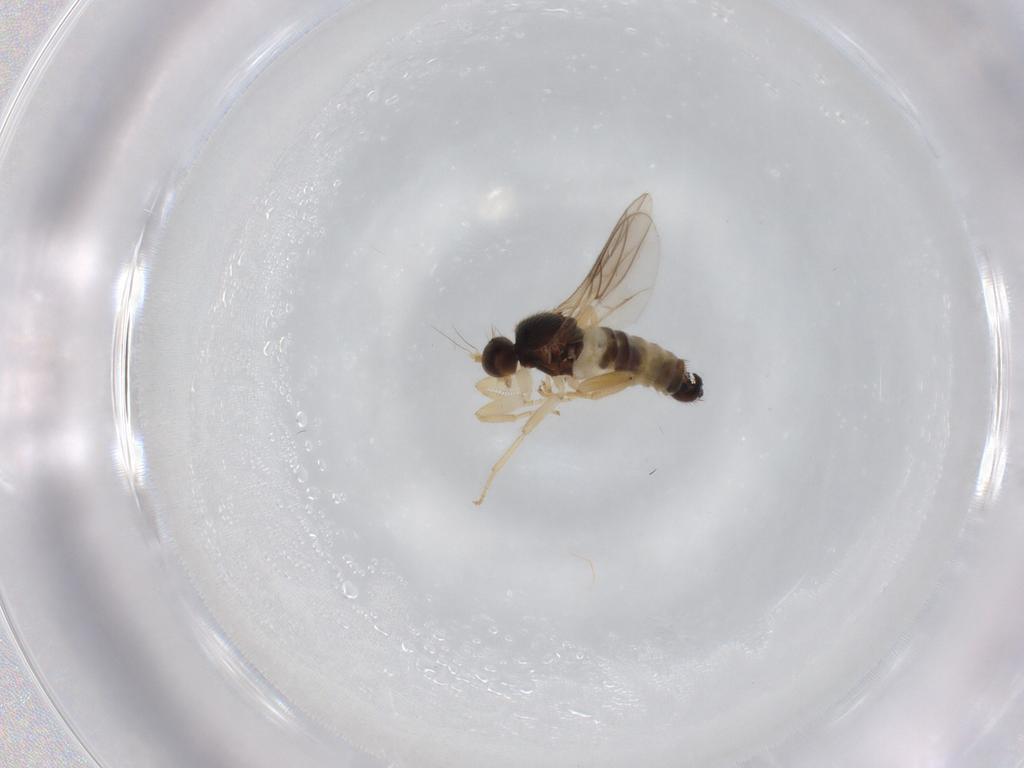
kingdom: Animalia
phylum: Arthropoda
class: Insecta
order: Diptera
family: Hybotidae
